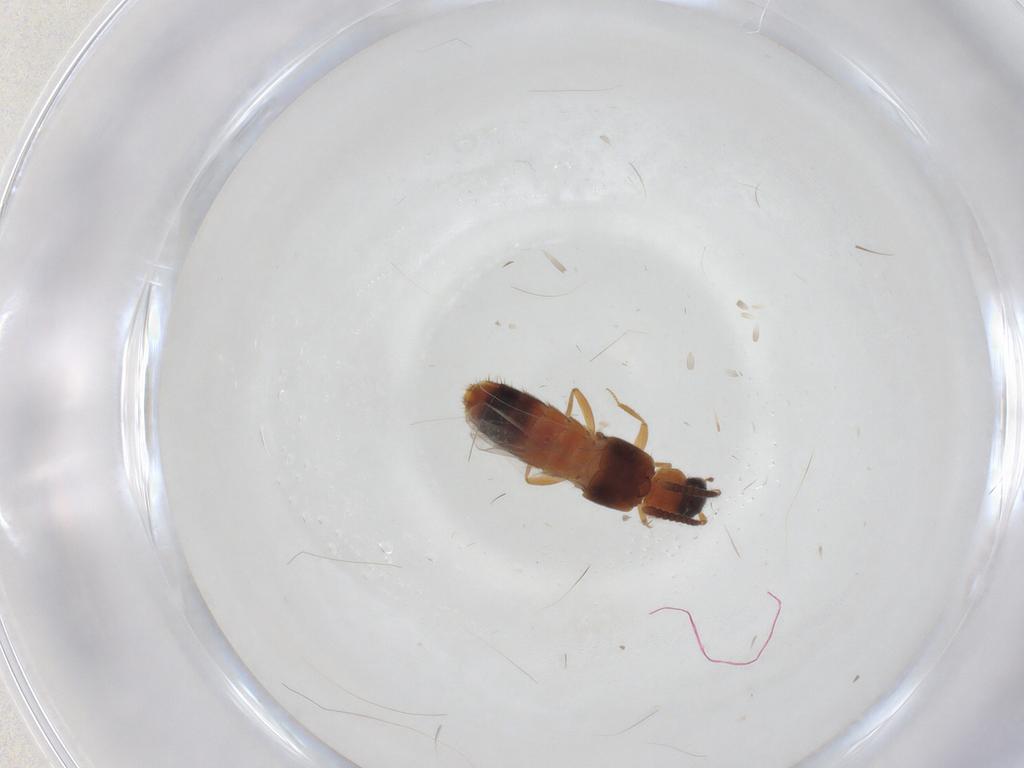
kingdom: Animalia
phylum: Arthropoda
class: Insecta
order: Coleoptera
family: Staphylinidae
